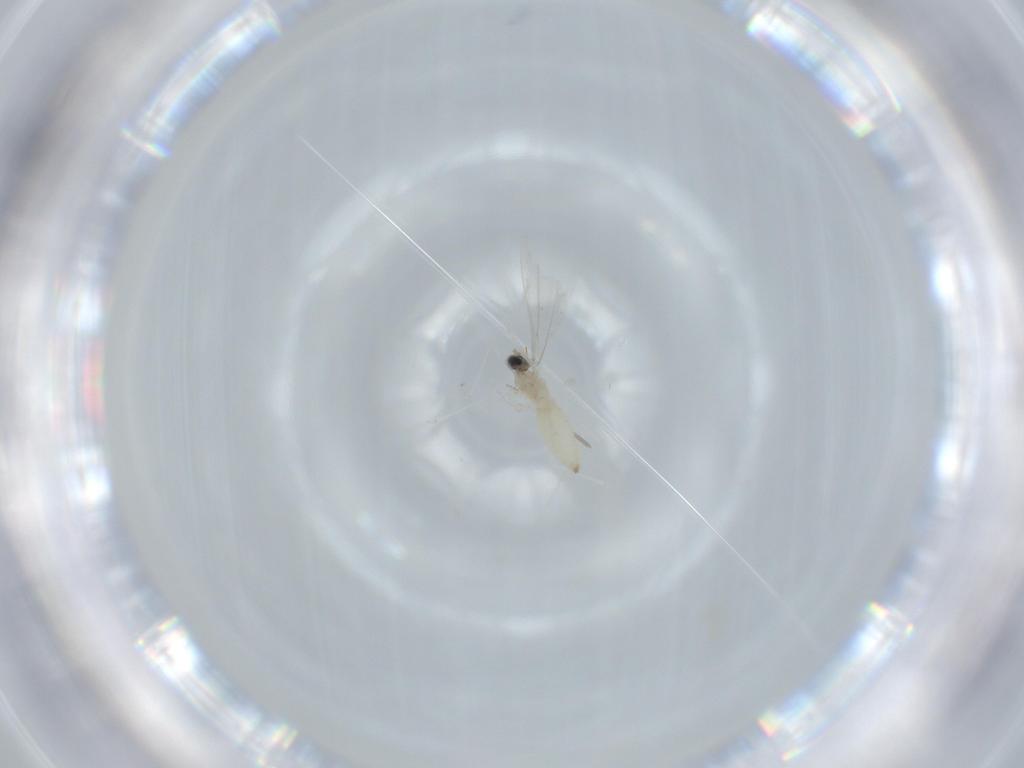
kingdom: Animalia
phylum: Arthropoda
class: Insecta
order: Diptera
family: Cecidomyiidae
